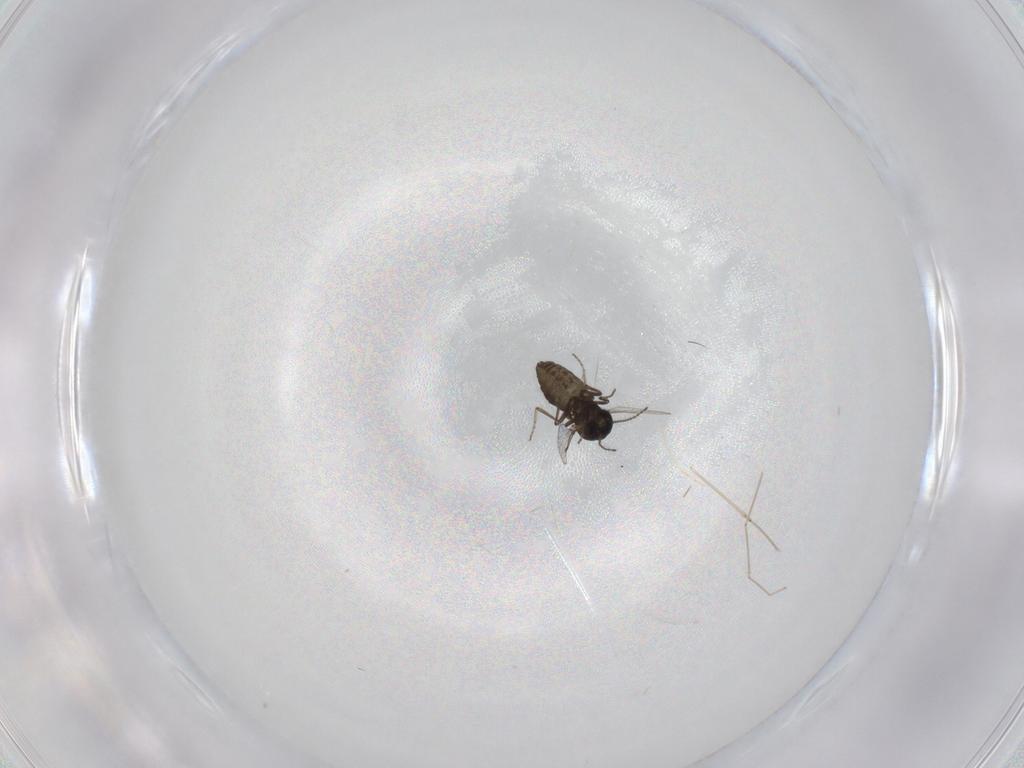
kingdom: Animalia
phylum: Arthropoda
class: Insecta
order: Diptera
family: Ceratopogonidae
